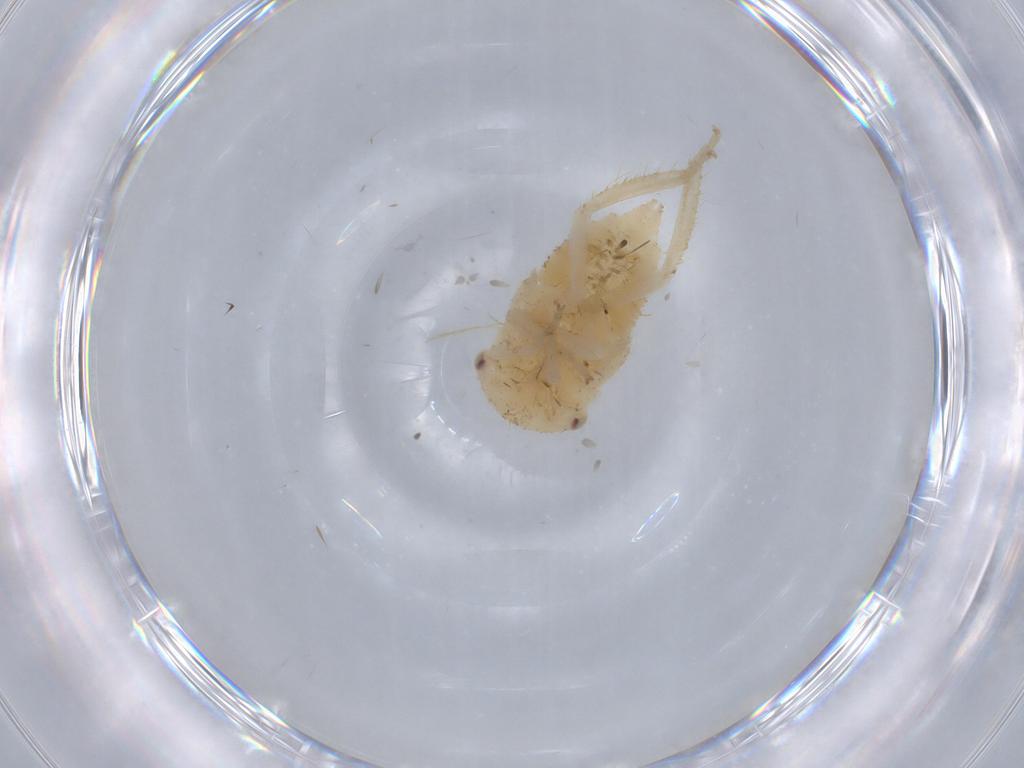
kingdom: Animalia
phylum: Arthropoda
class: Insecta
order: Hemiptera
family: Cicadellidae
